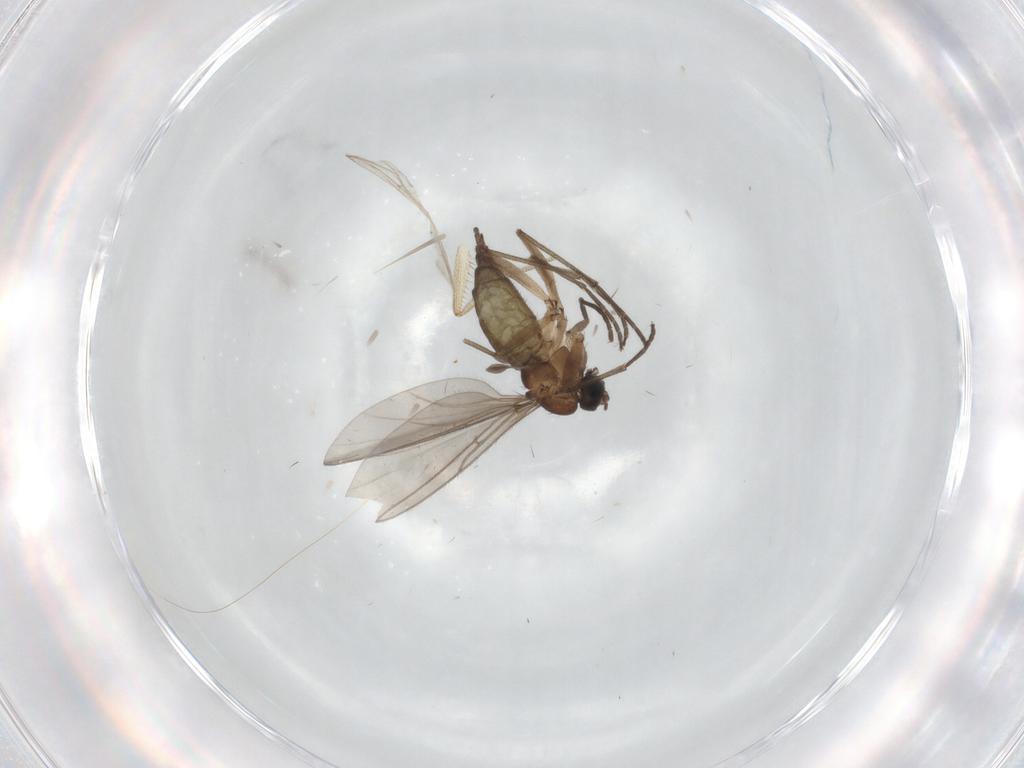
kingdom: Animalia
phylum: Arthropoda
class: Insecta
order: Diptera
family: Sciaridae
